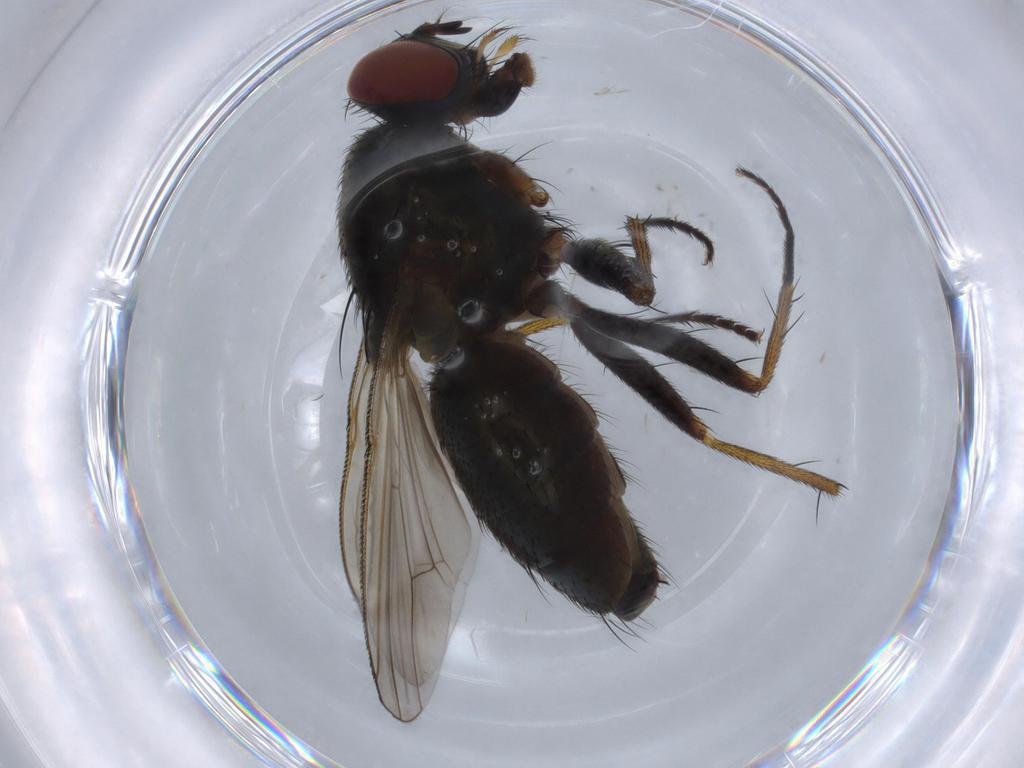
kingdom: Animalia
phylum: Arthropoda
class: Insecta
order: Diptera
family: Muscidae
